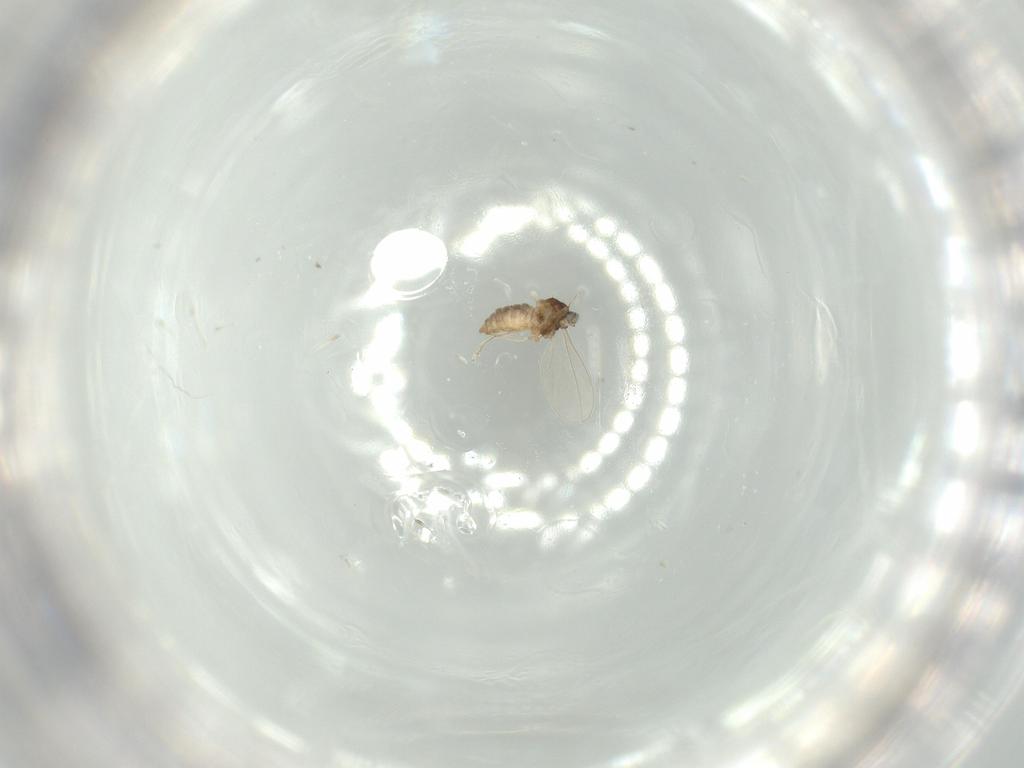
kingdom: Animalia
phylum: Arthropoda
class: Insecta
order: Diptera
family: Cecidomyiidae
